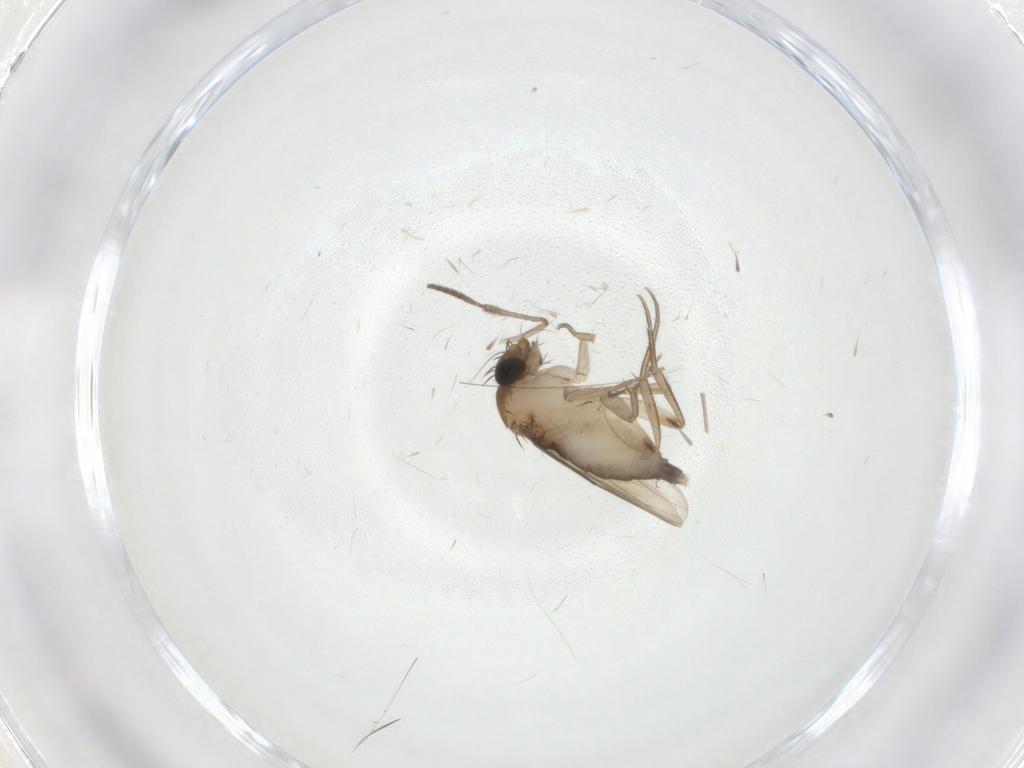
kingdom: Animalia
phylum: Arthropoda
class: Insecta
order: Diptera
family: Phoridae
